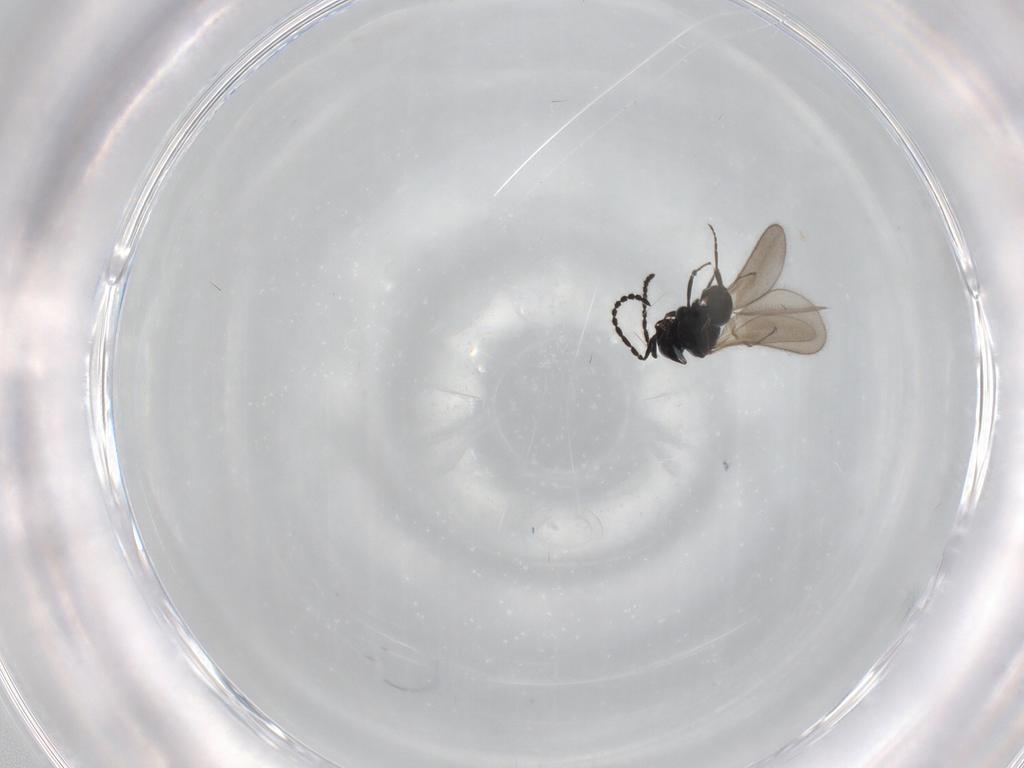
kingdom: Animalia
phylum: Arthropoda
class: Insecta
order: Hymenoptera
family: Scelionidae
